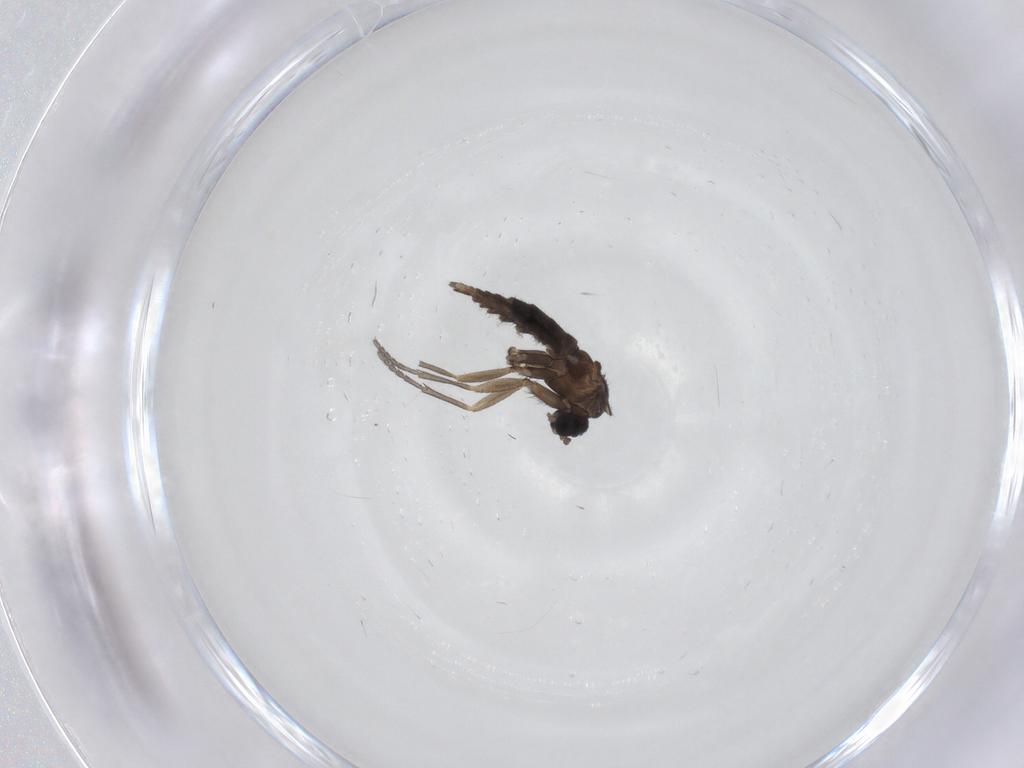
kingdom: Animalia
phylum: Arthropoda
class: Insecta
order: Diptera
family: Sciaridae
